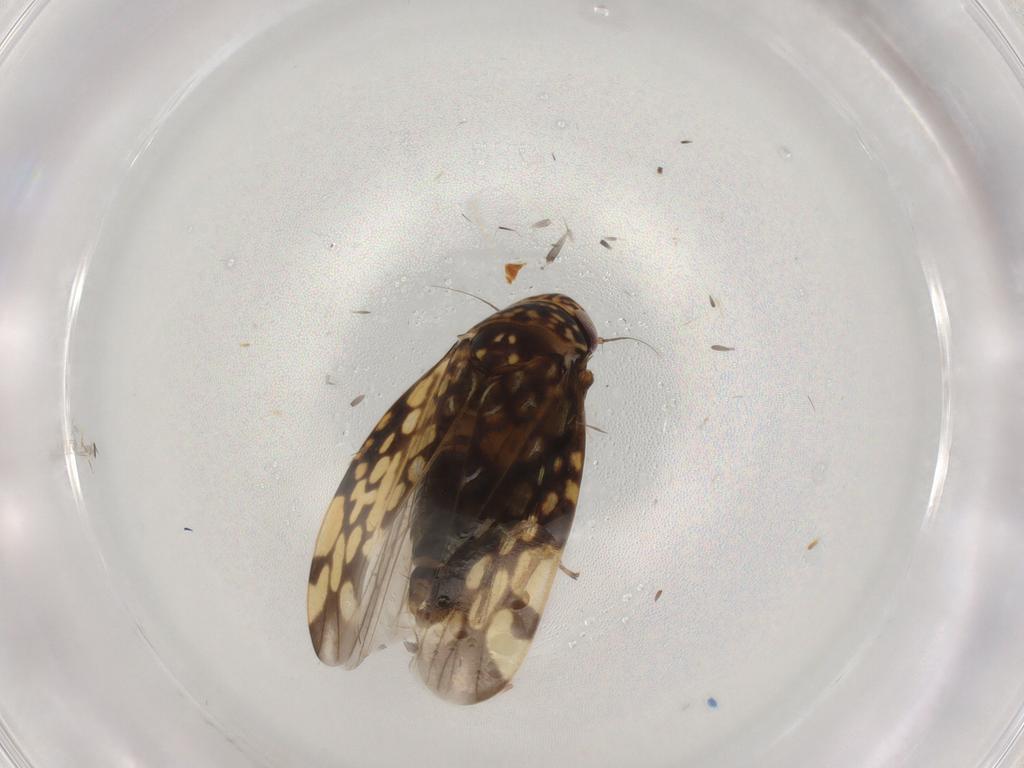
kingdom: Animalia
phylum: Arthropoda
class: Insecta
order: Hemiptera
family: Cicadellidae
